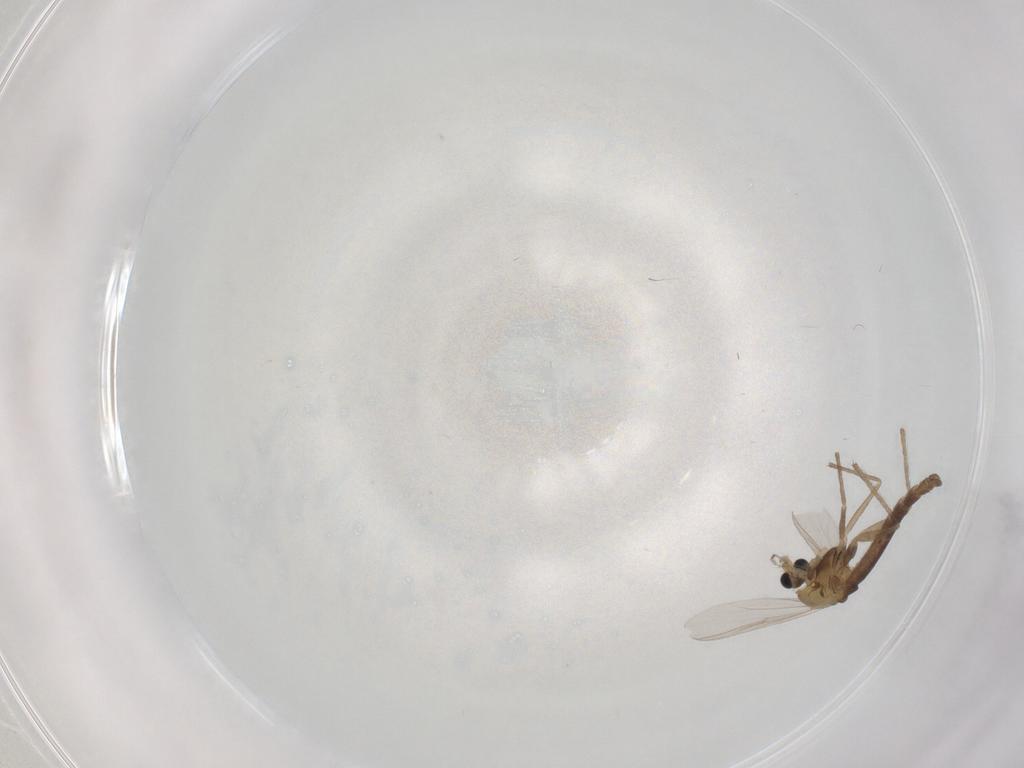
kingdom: Animalia
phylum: Arthropoda
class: Insecta
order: Diptera
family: Chironomidae
